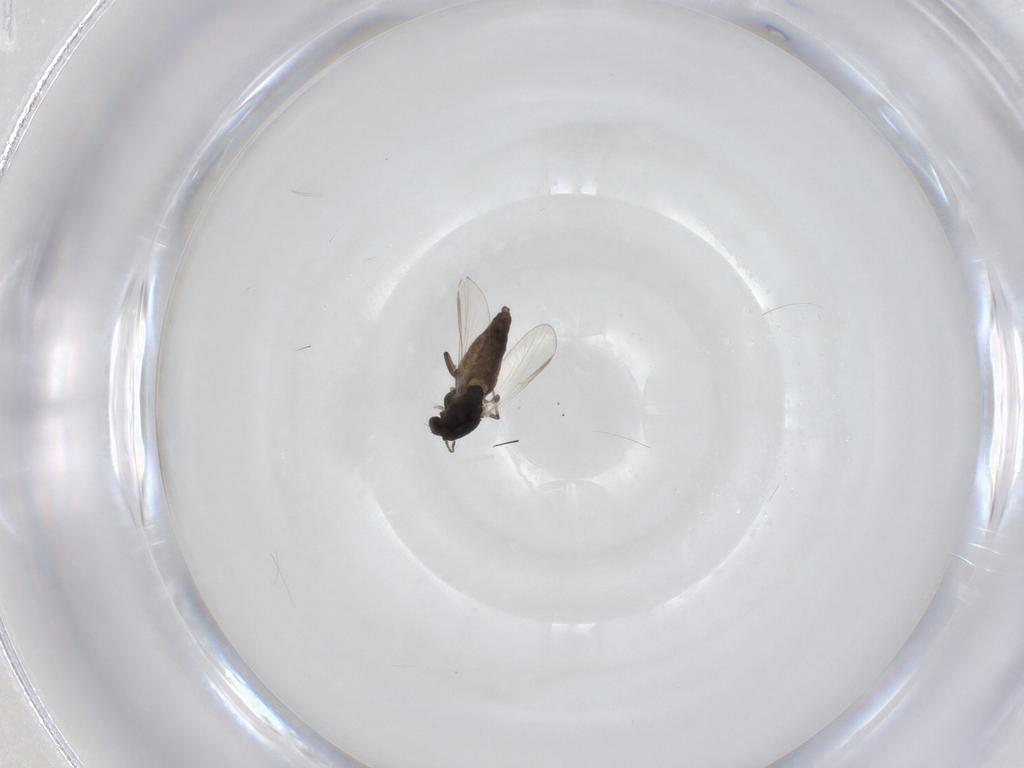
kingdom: Animalia
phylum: Arthropoda
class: Insecta
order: Diptera
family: Chironomidae
